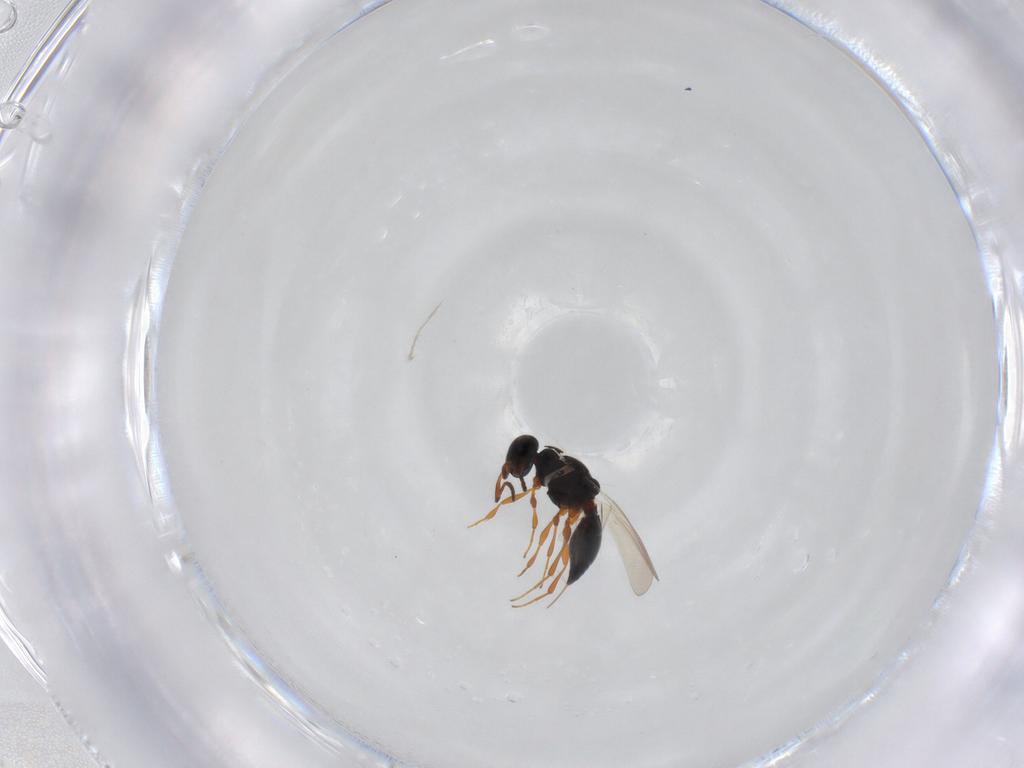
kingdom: Animalia
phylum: Arthropoda
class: Insecta
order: Hymenoptera
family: Platygastridae
